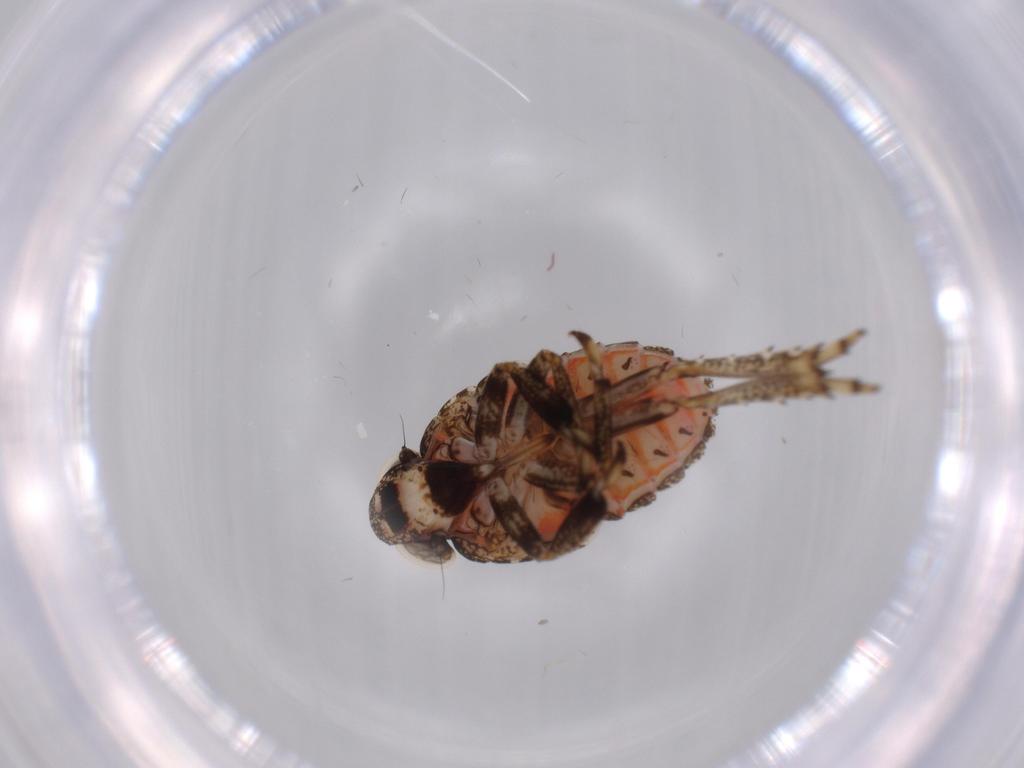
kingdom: Animalia
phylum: Arthropoda
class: Insecta
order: Hemiptera
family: Issidae
